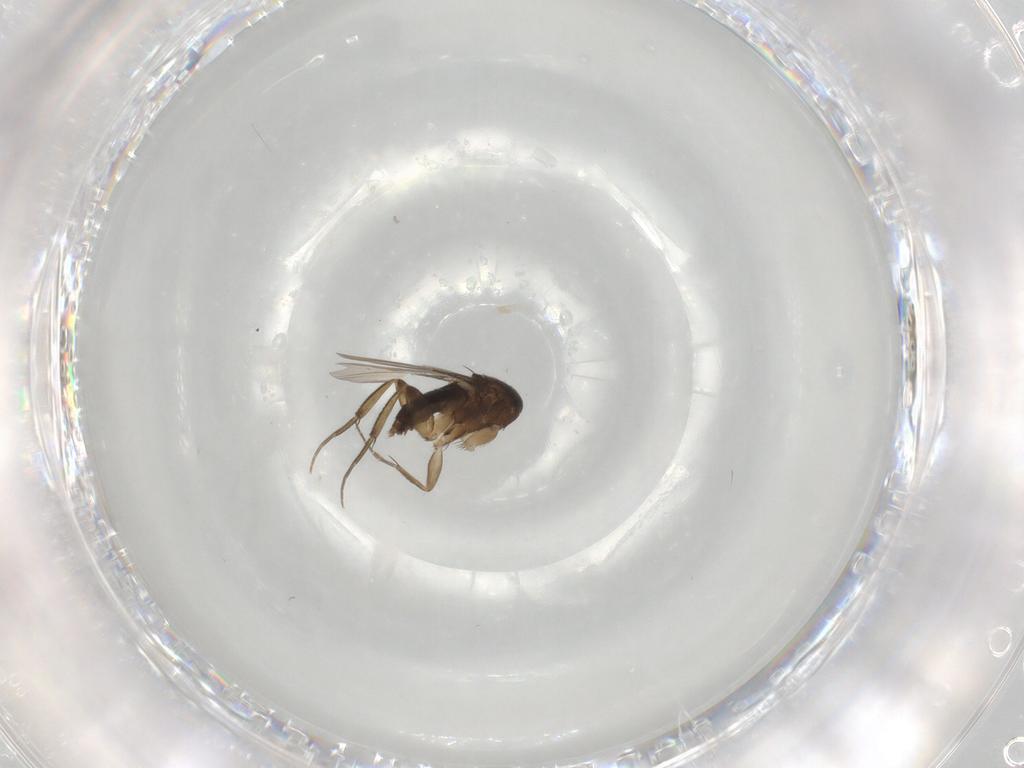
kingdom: Animalia
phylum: Arthropoda
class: Insecta
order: Diptera
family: Phoridae
